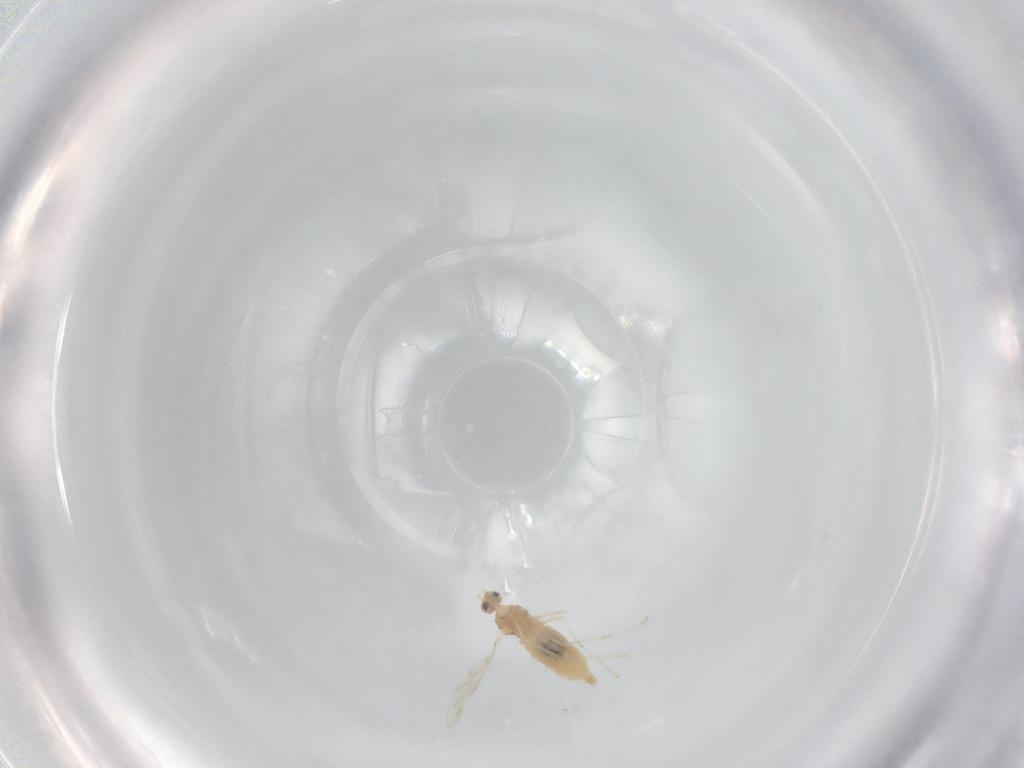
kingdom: Animalia
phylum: Arthropoda
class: Insecta
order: Diptera
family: Cecidomyiidae
